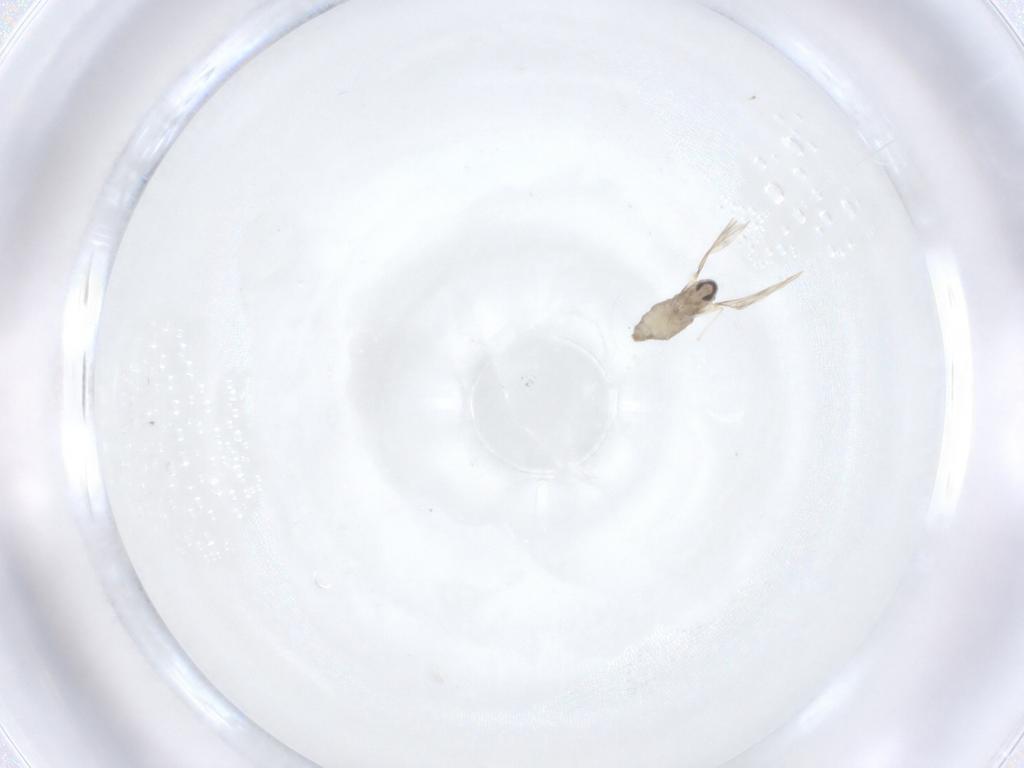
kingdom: Animalia
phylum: Arthropoda
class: Insecta
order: Diptera
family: Cecidomyiidae
